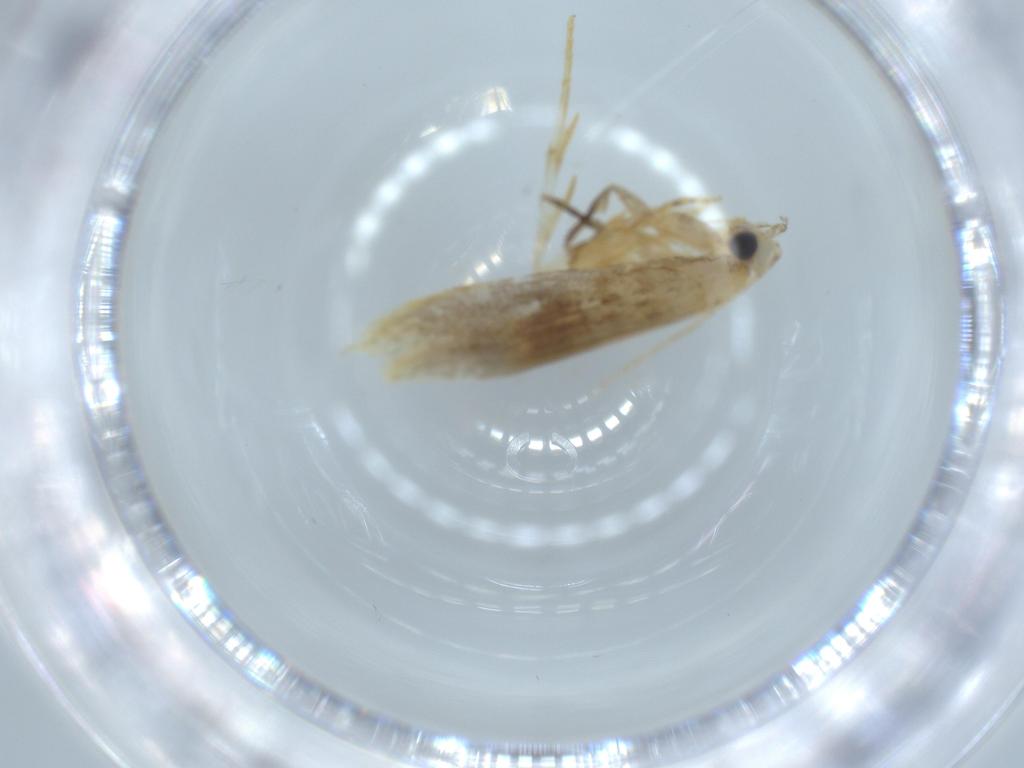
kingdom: Animalia
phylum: Arthropoda
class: Insecta
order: Lepidoptera
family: Tineidae
